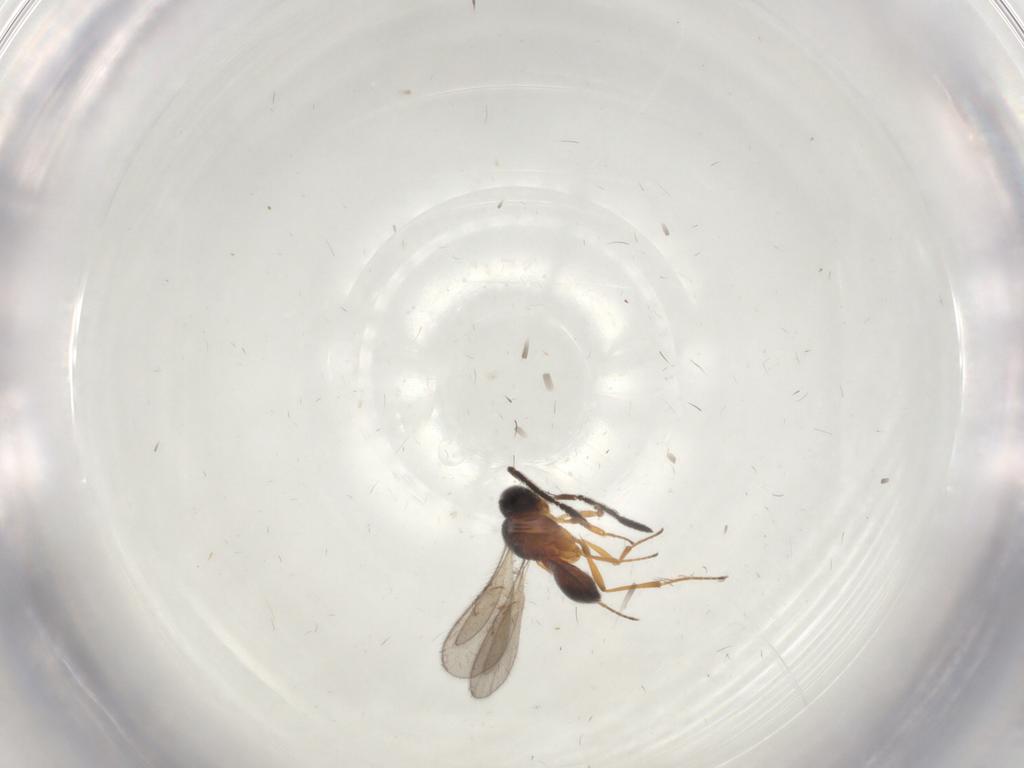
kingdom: Animalia
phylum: Arthropoda
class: Insecta
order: Hymenoptera
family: Scelionidae
